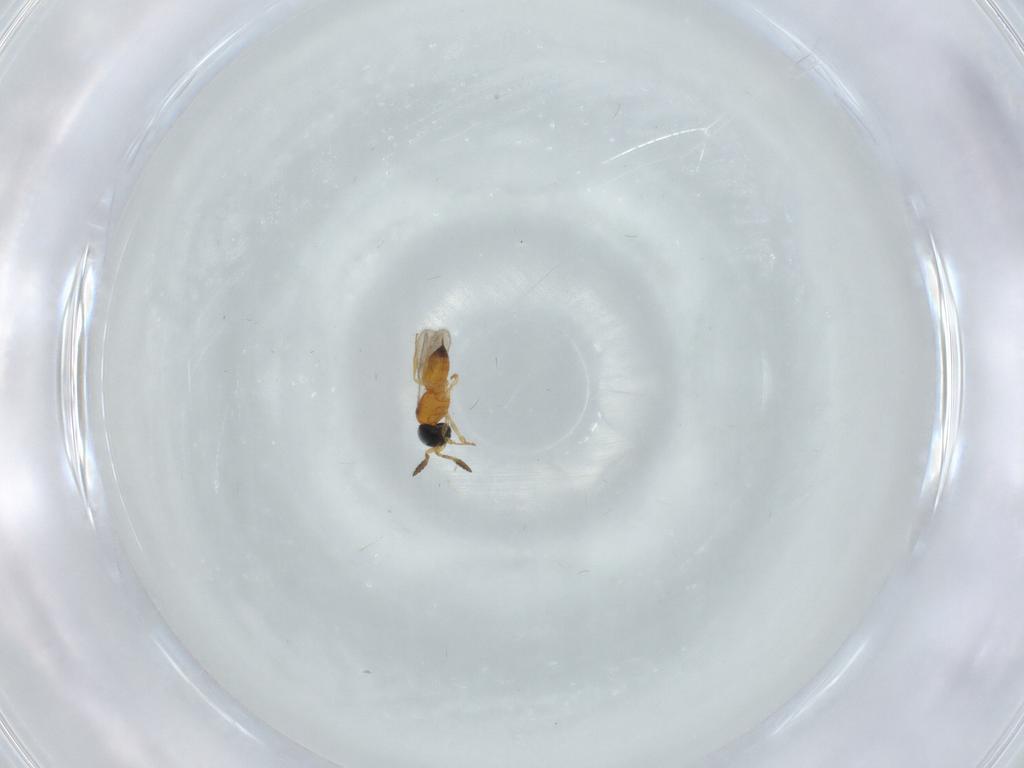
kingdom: Animalia
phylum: Arthropoda
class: Insecta
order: Hymenoptera
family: Scelionidae
